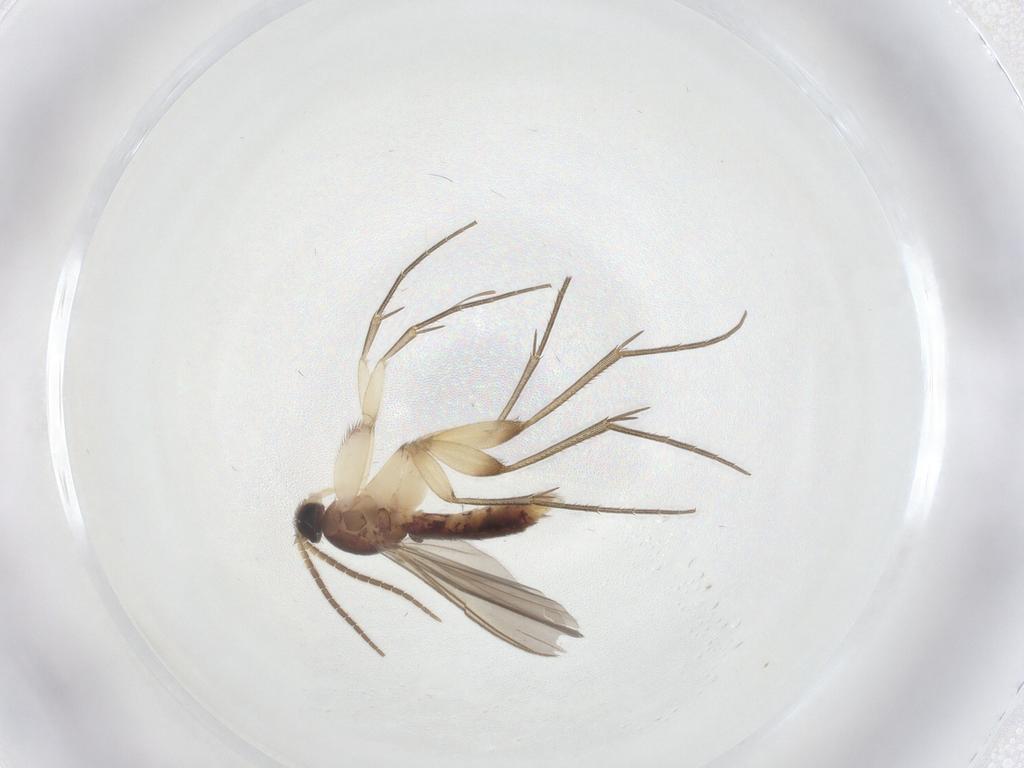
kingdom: Animalia
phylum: Arthropoda
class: Insecta
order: Diptera
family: Mycetophilidae
